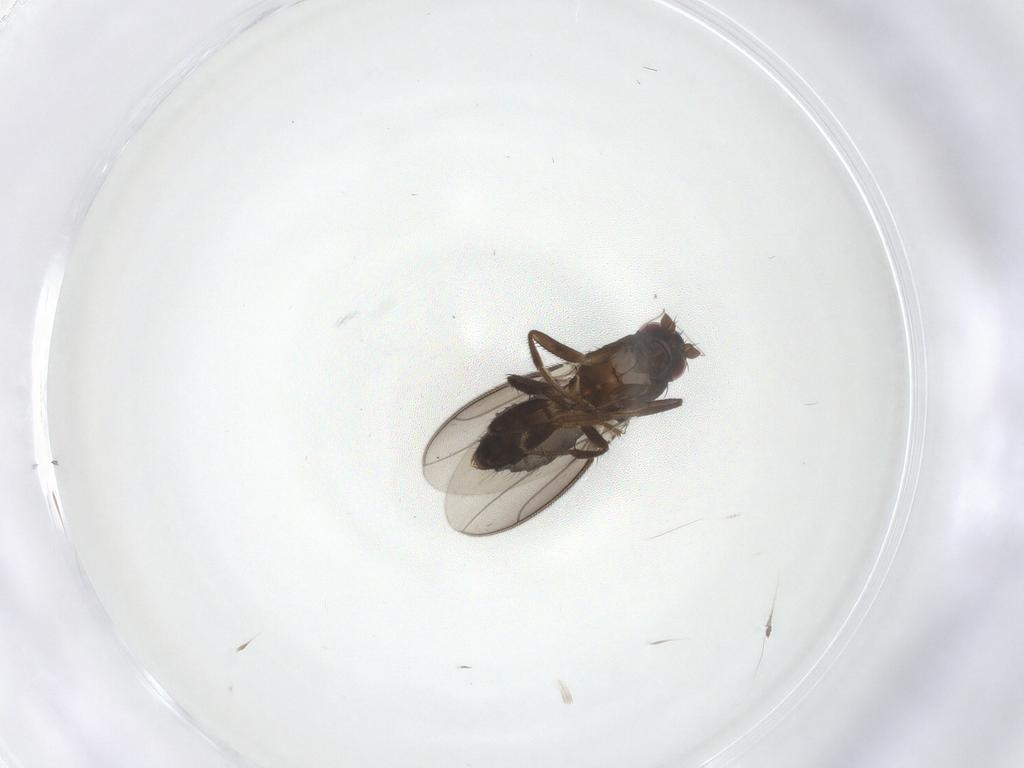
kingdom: Animalia
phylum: Arthropoda
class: Insecta
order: Diptera
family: Sphaeroceridae
